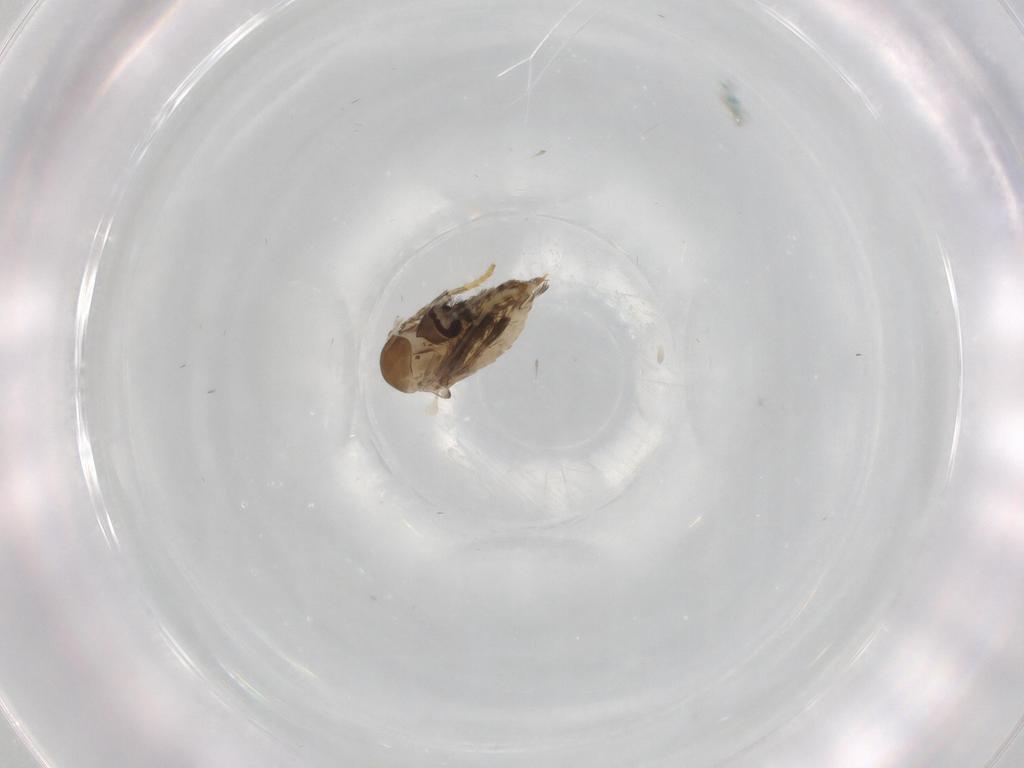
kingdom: Animalia
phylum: Arthropoda
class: Insecta
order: Diptera
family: Psychodidae
